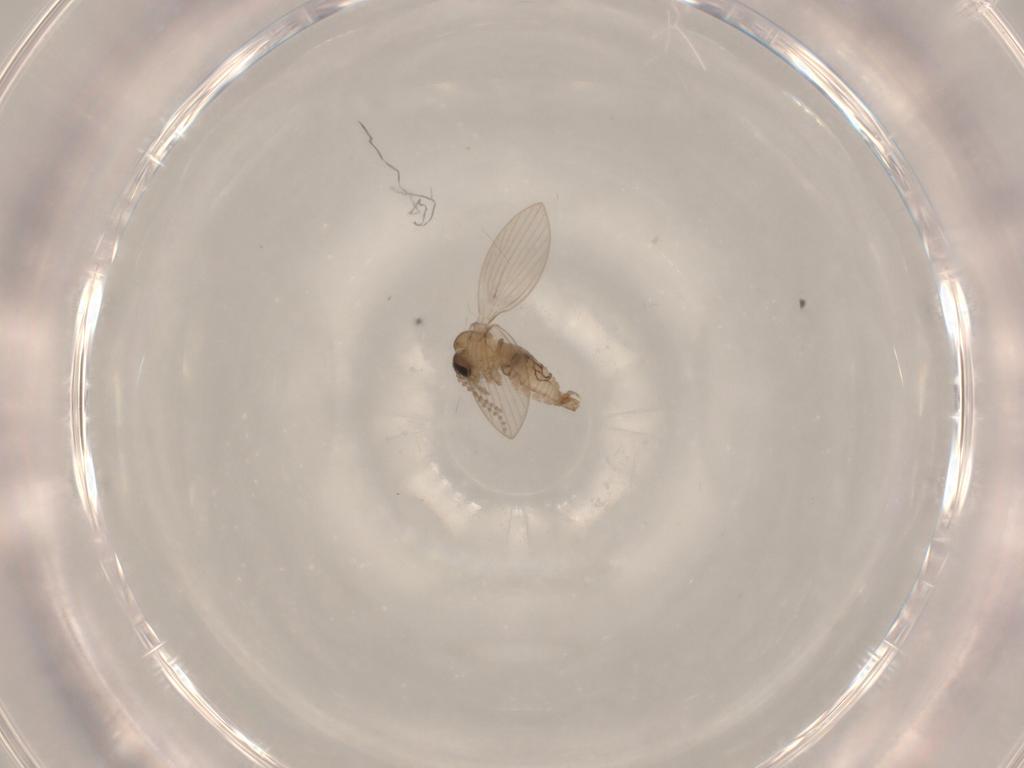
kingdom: Animalia
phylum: Arthropoda
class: Insecta
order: Diptera
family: Psychodidae
